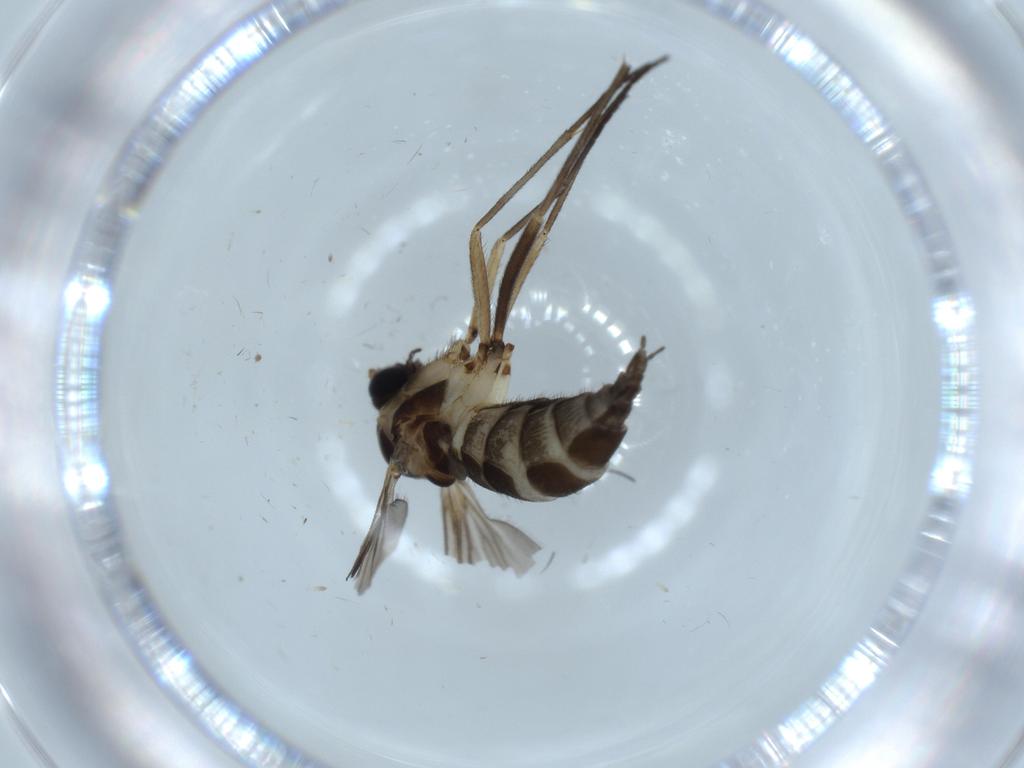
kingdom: Animalia
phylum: Arthropoda
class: Insecta
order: Diptera
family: Sciaridae
